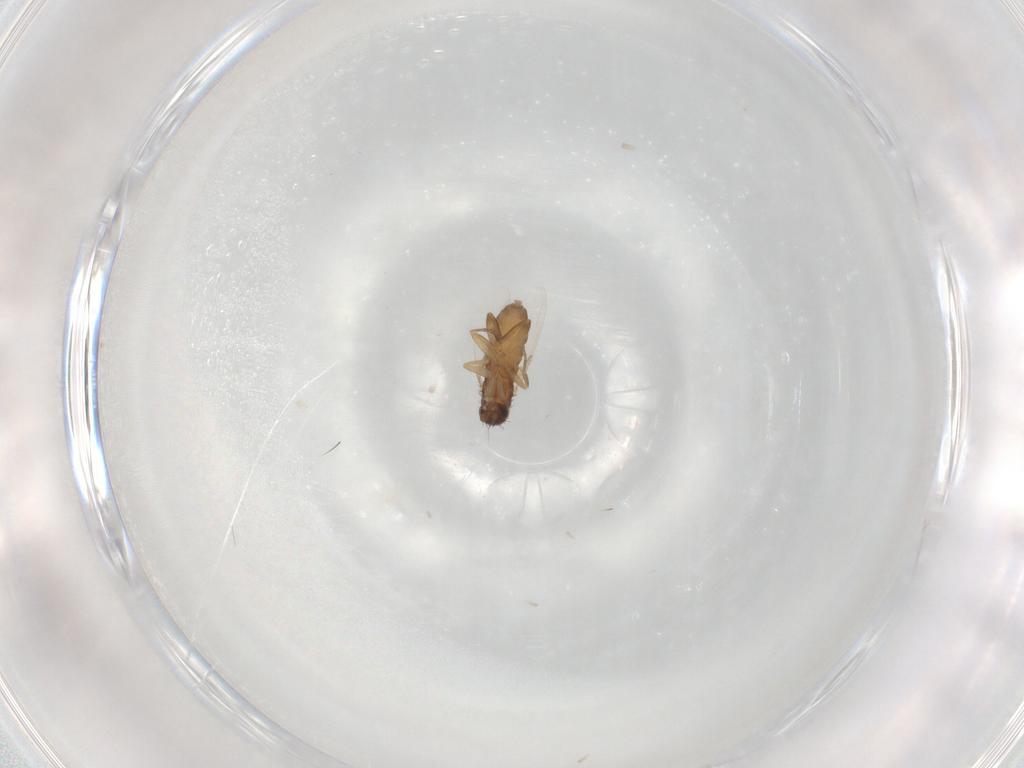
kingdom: Animalia
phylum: Arthropoda
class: Insecta
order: Diptera
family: Phoridae
